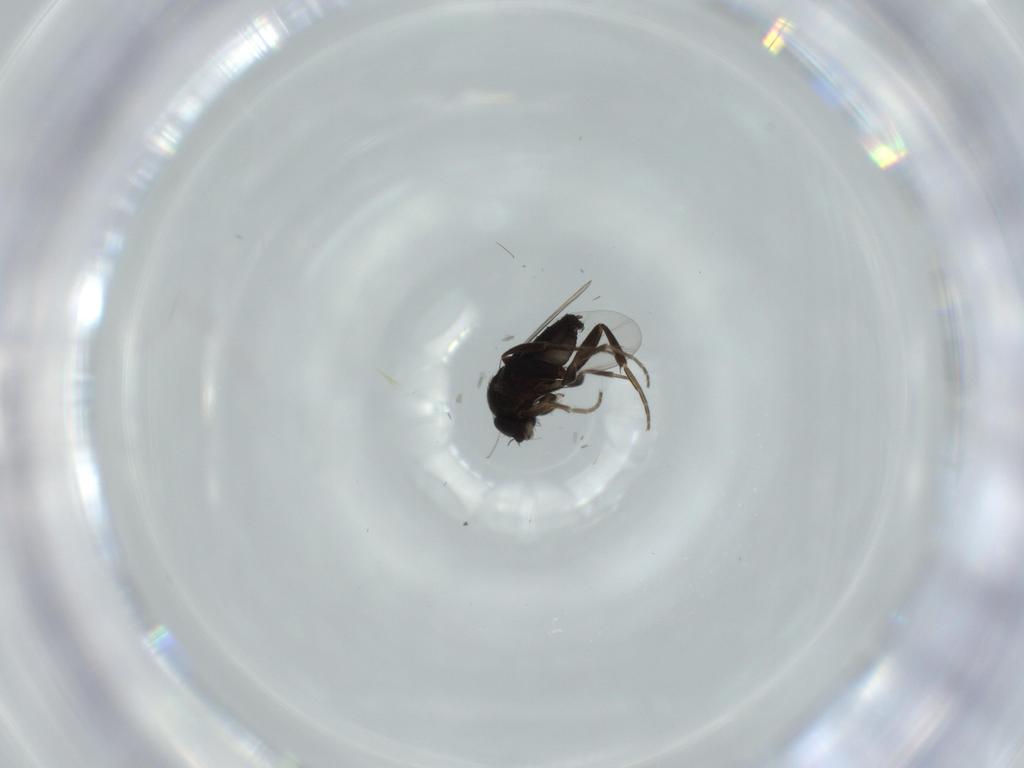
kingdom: Animalia
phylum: Arthropoda
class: Insecta
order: Diptera
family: Phoridae
